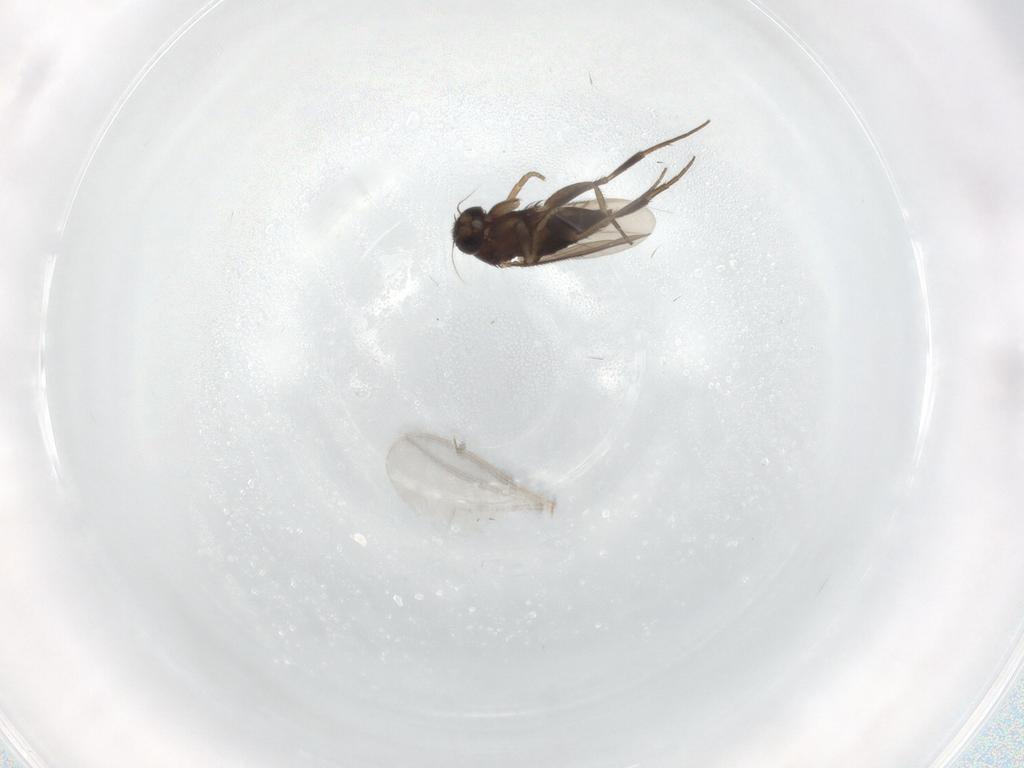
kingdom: Animalia
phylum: Arthropoda
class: Insecta
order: Diptera
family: Phoridae
